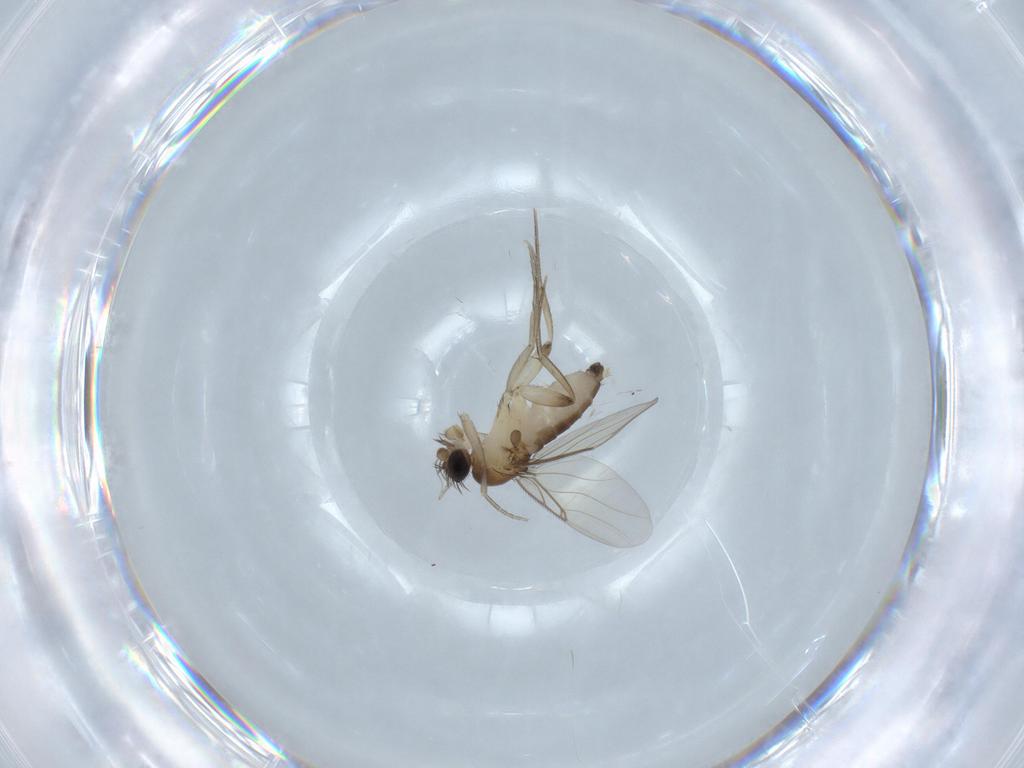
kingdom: Animalia
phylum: Arthropoda
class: Insecta
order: Diptera
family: Phoridae
